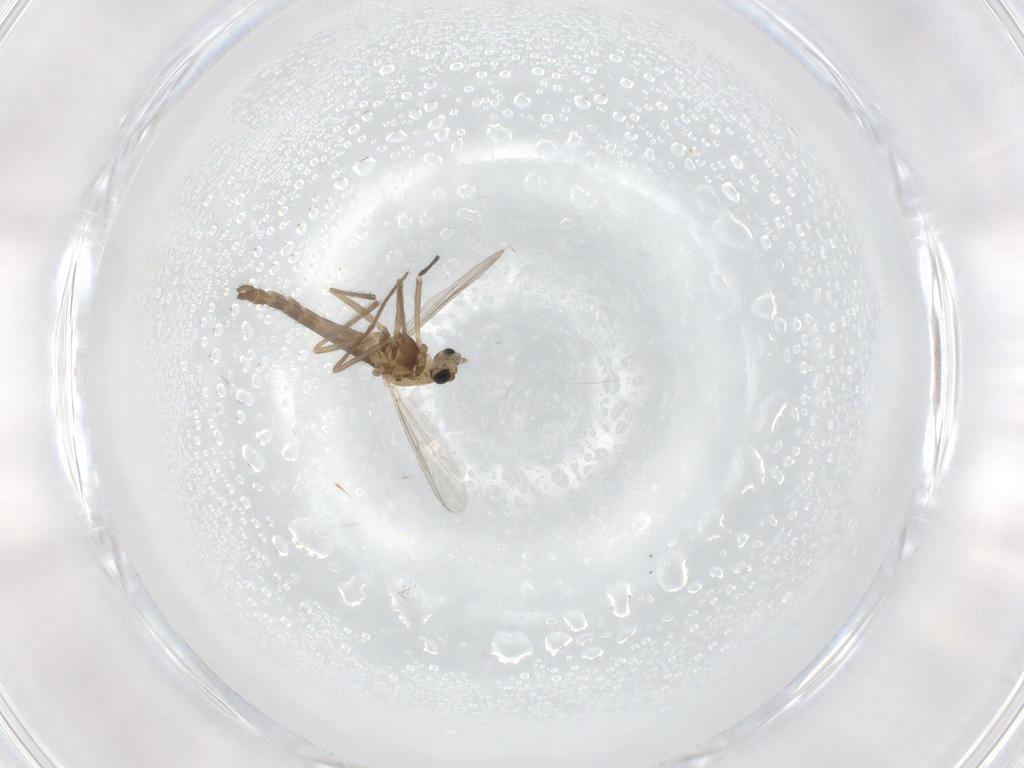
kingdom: Animalia
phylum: Arthropoda
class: Insecta
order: Diptera
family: Chironomidae
